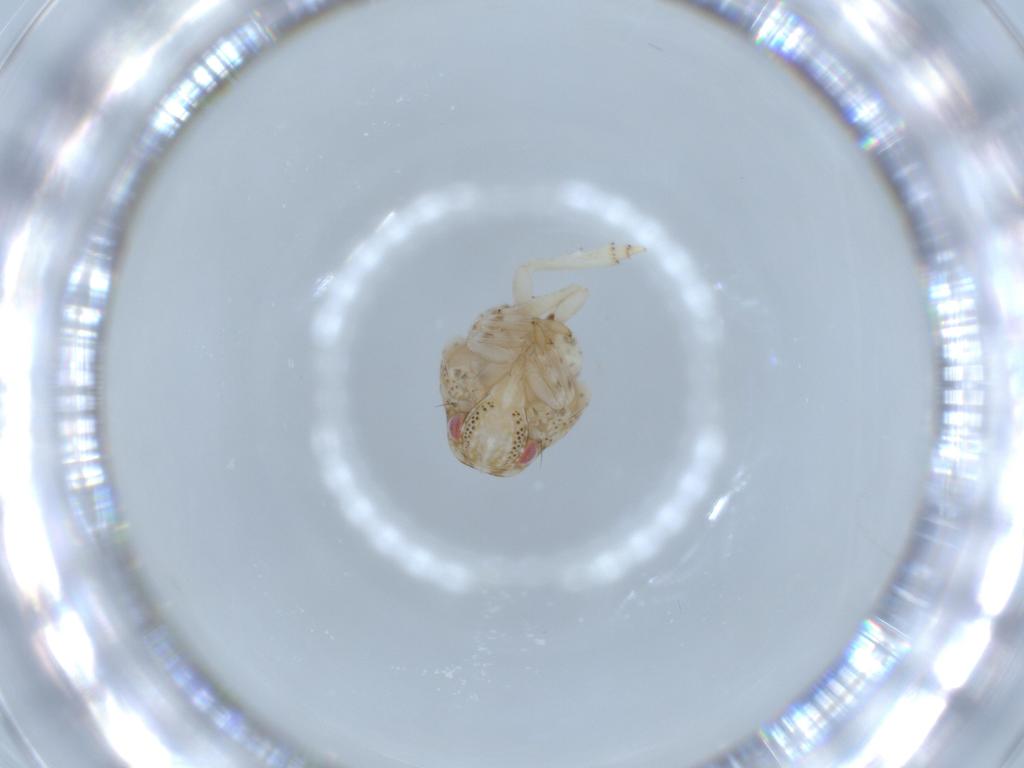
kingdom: Animalia
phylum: Arthropoda
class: Insecta
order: Hemiptera
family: Acanaloniidae
